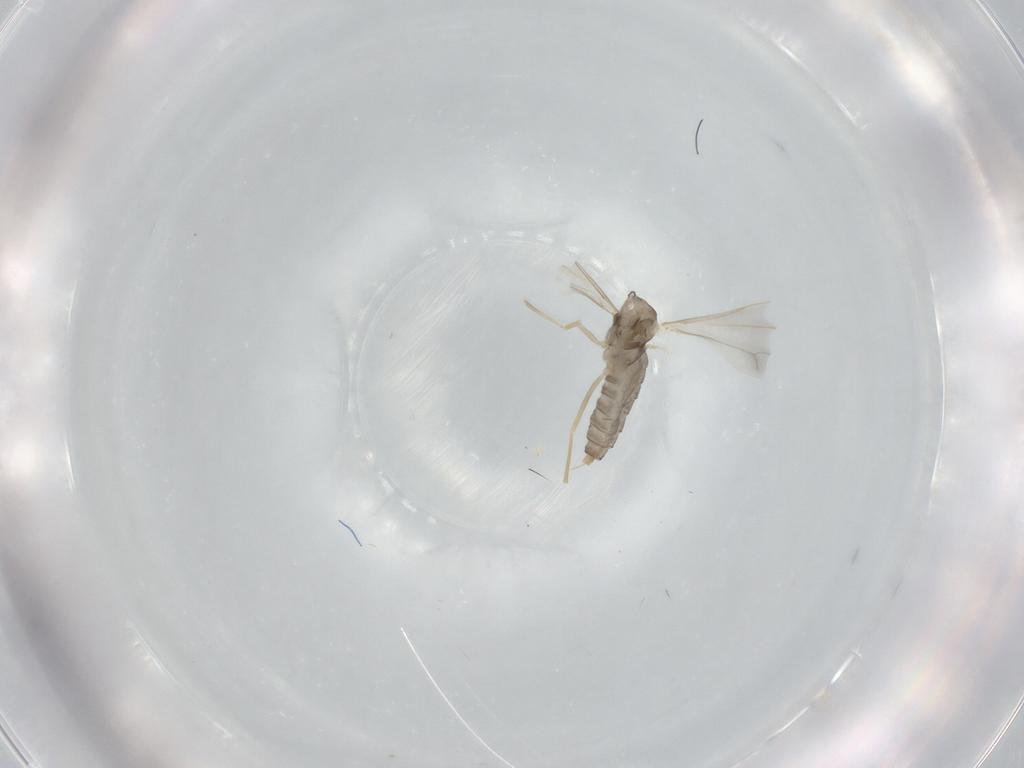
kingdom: Animalia
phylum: Arthropoda
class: Insecta
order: Diptera
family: Cecidomyiidae
